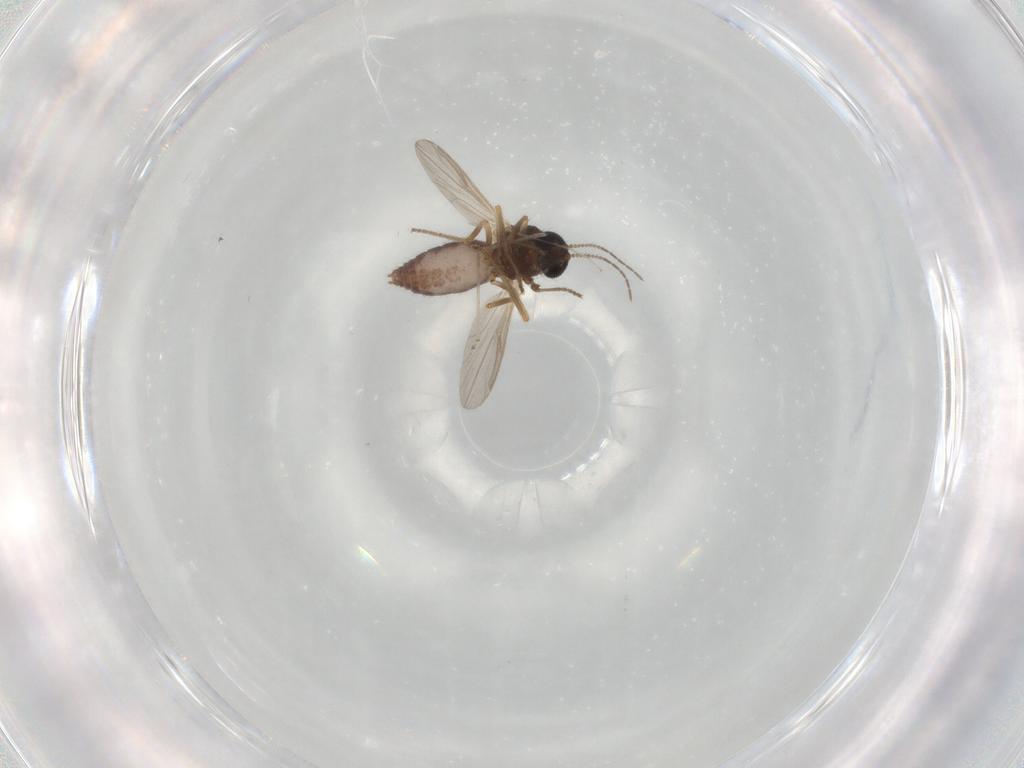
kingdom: Animalia
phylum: Arthropoda
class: Insecta
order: Diptera
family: Ceratopogonidae
